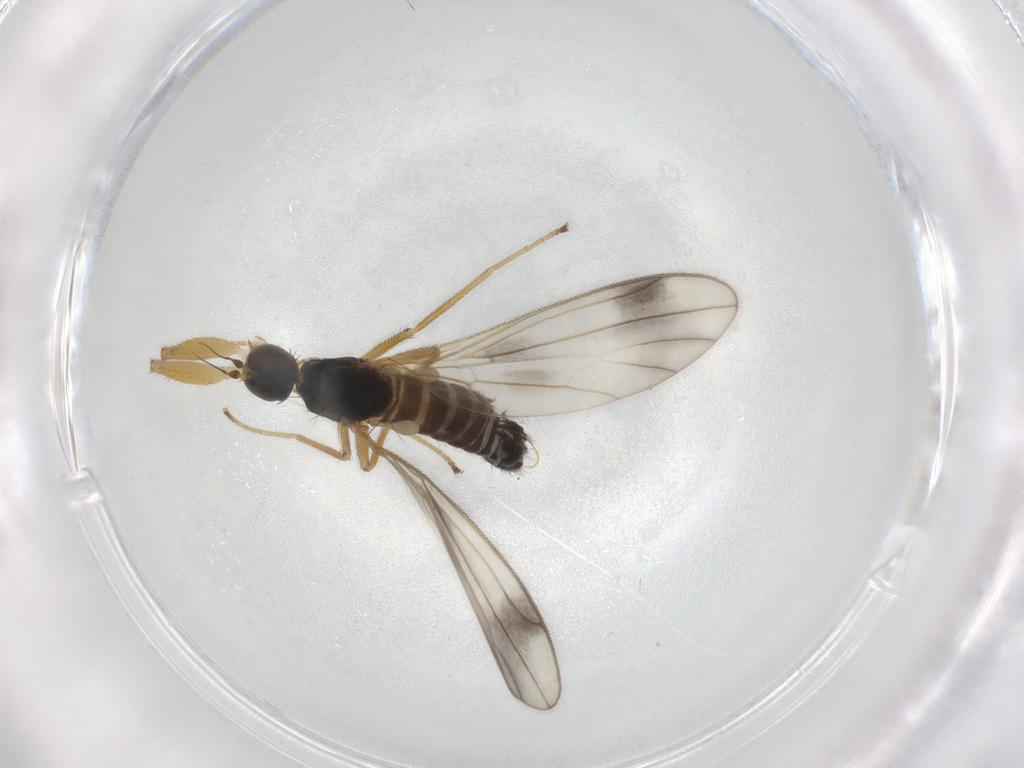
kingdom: Animalia
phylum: Arthropoda
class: Insecta
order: Diptera
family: Empididae
